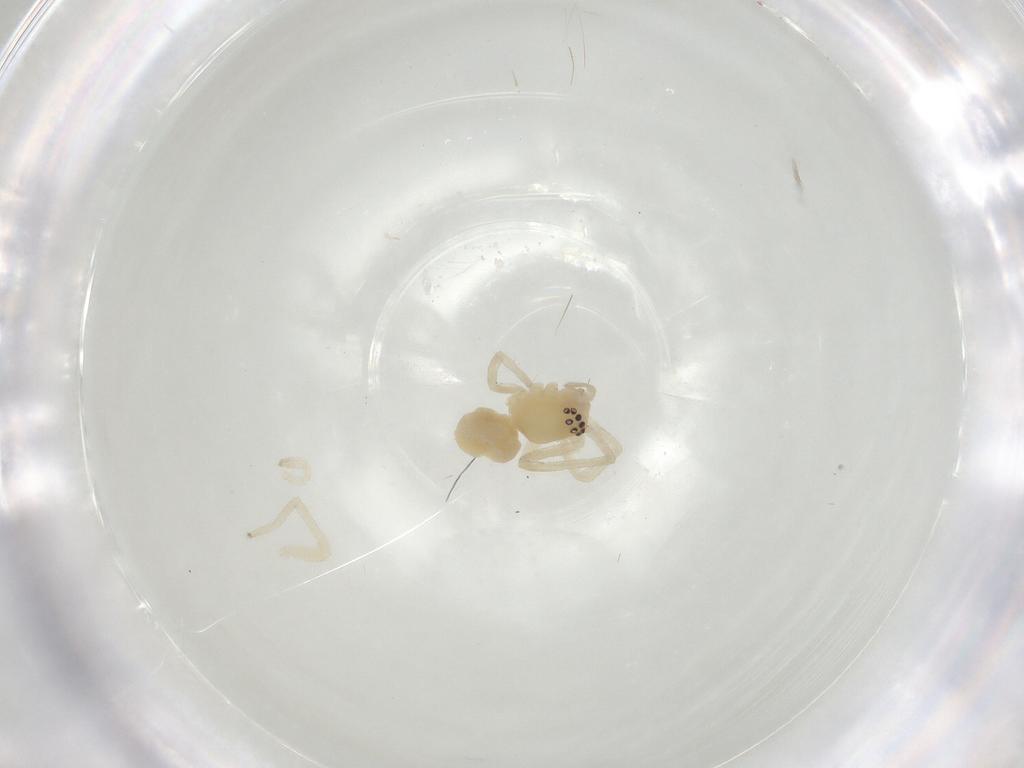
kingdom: Animalia
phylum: Arthropoda
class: Arachnida
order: Araneae
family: Cheiracanthiidae
